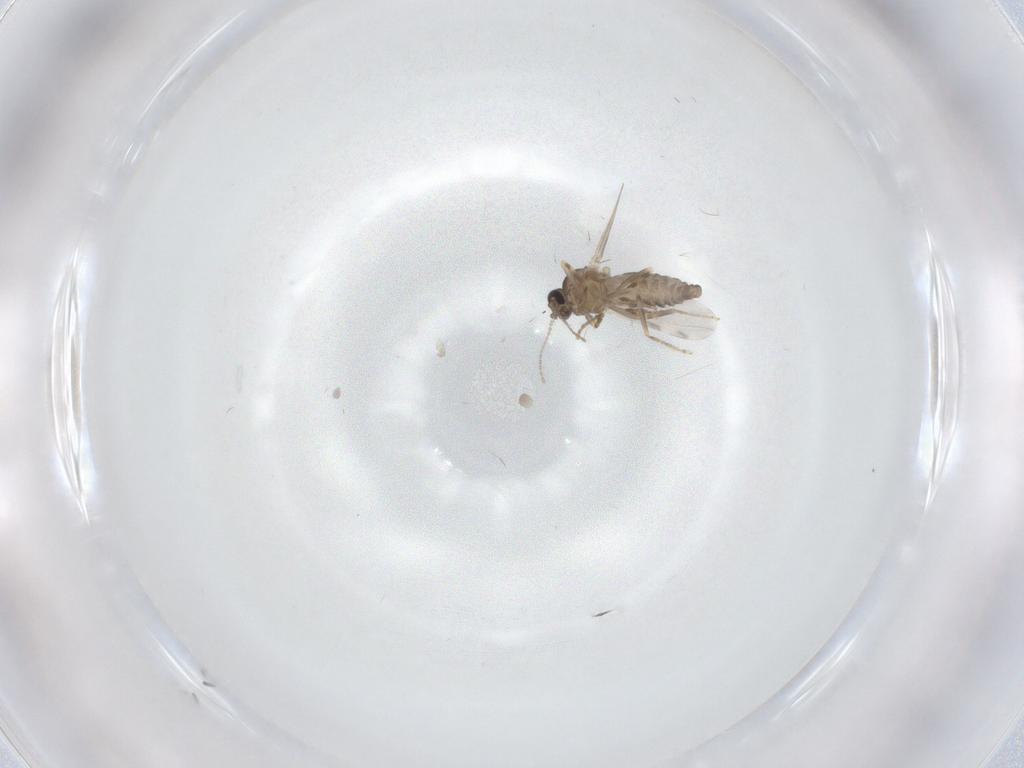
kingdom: Animalia
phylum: Arthropoda
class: Insecta
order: Diptera
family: Ceratopogonidae
